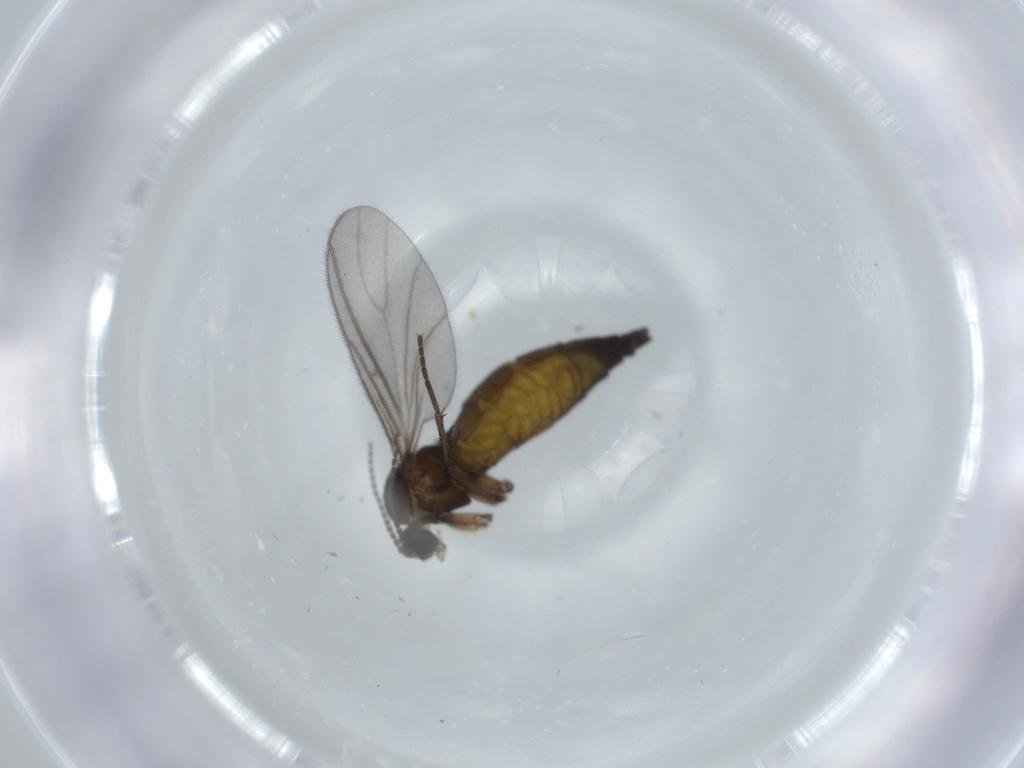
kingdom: Animalia
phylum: Arthropoda
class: Insecta
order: Diptera
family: Sciaridae
